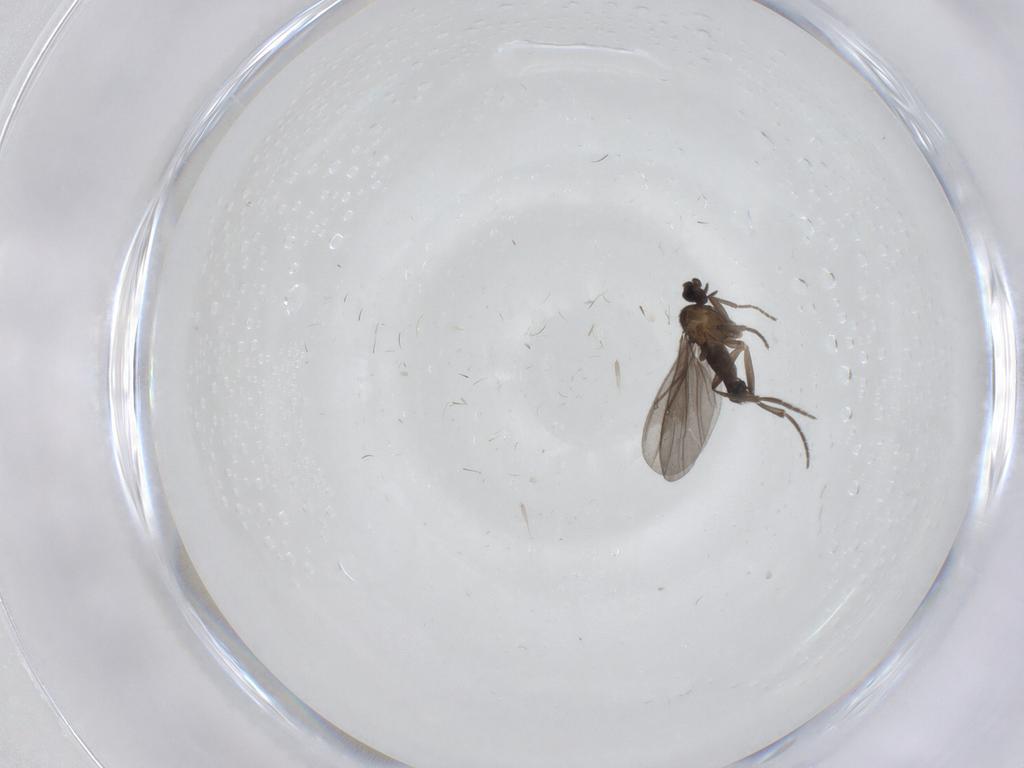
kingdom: Animalia
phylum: Arthropoda
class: Insecta
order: Diptera
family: Phoridae
